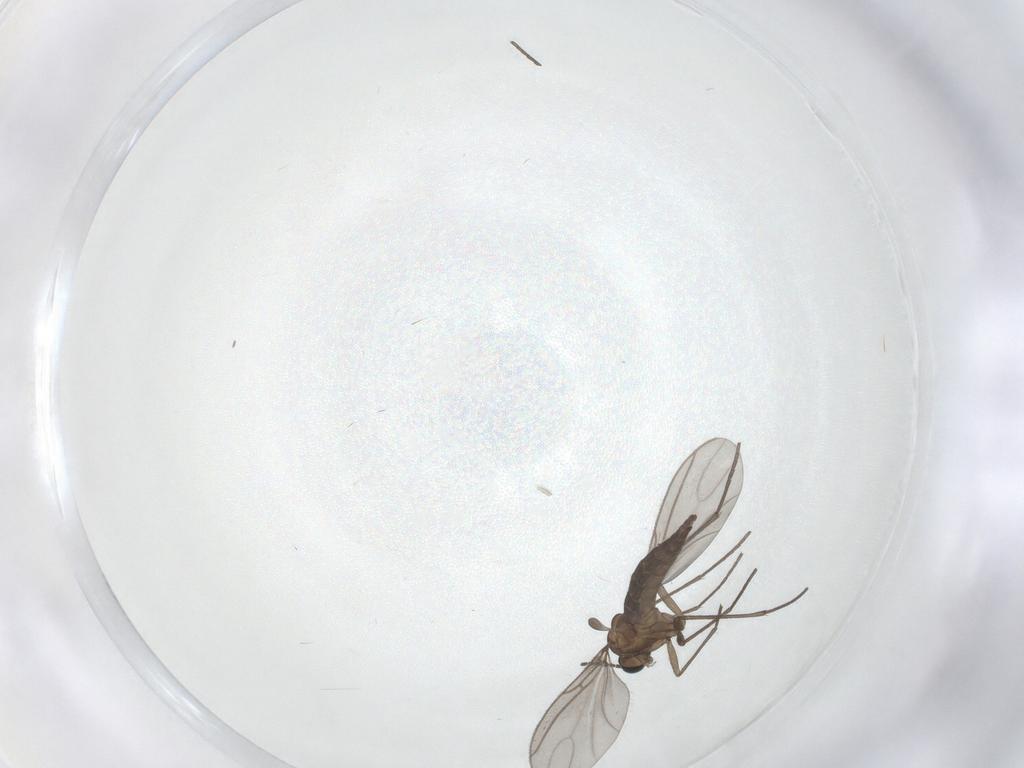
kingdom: Animalia
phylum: Arthropoda
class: Insecta
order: Diptera
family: Sciaridae
